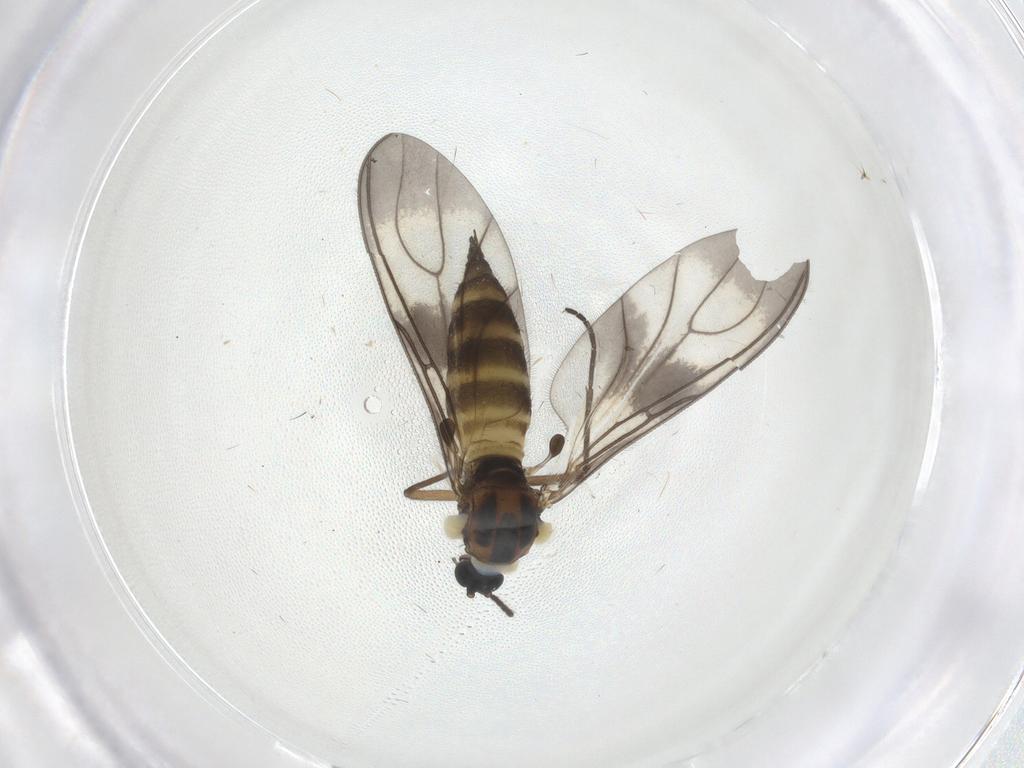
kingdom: Animalia
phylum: Arthropoda
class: Insecta
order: Diptera
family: Sciaridae
